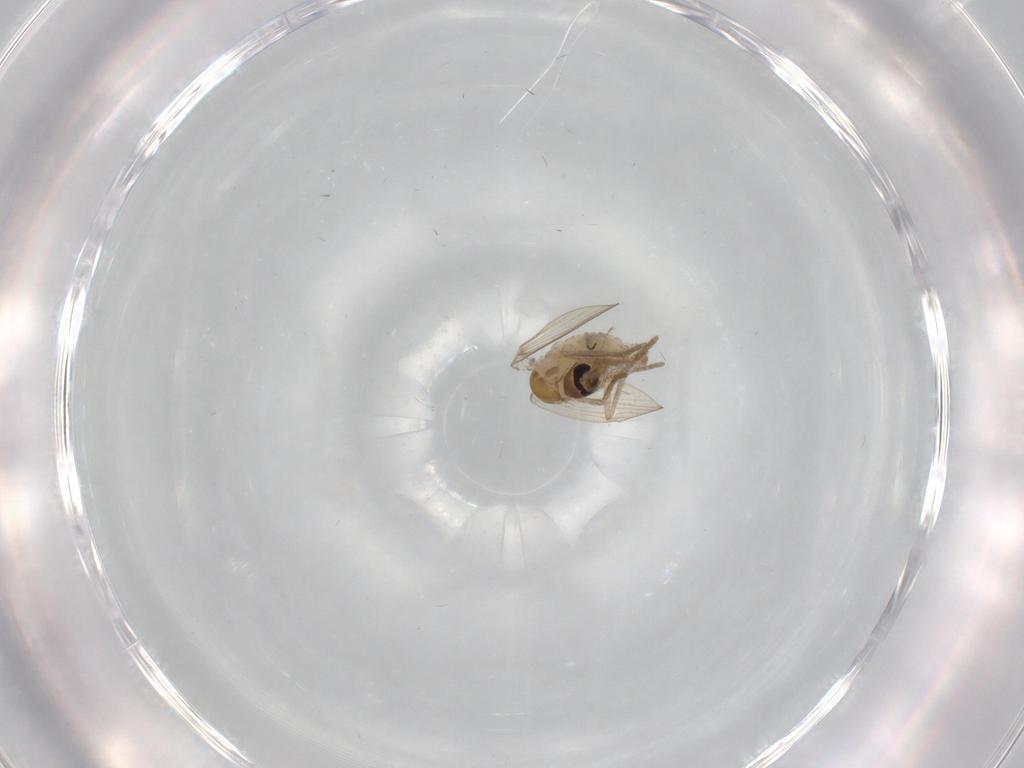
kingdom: Animalia
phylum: Arthropoda
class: Insecta
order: Diptera
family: Psychodidae
